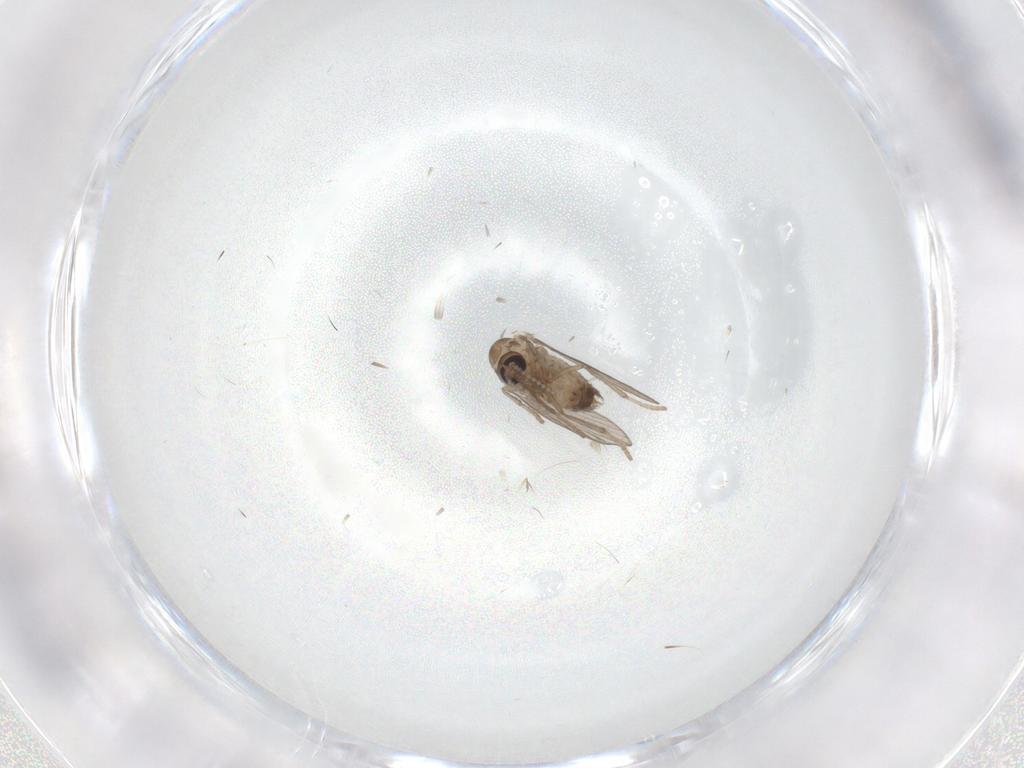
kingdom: Animalia
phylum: Arthropoda
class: Insecta
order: Diptera
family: Psychodidae
